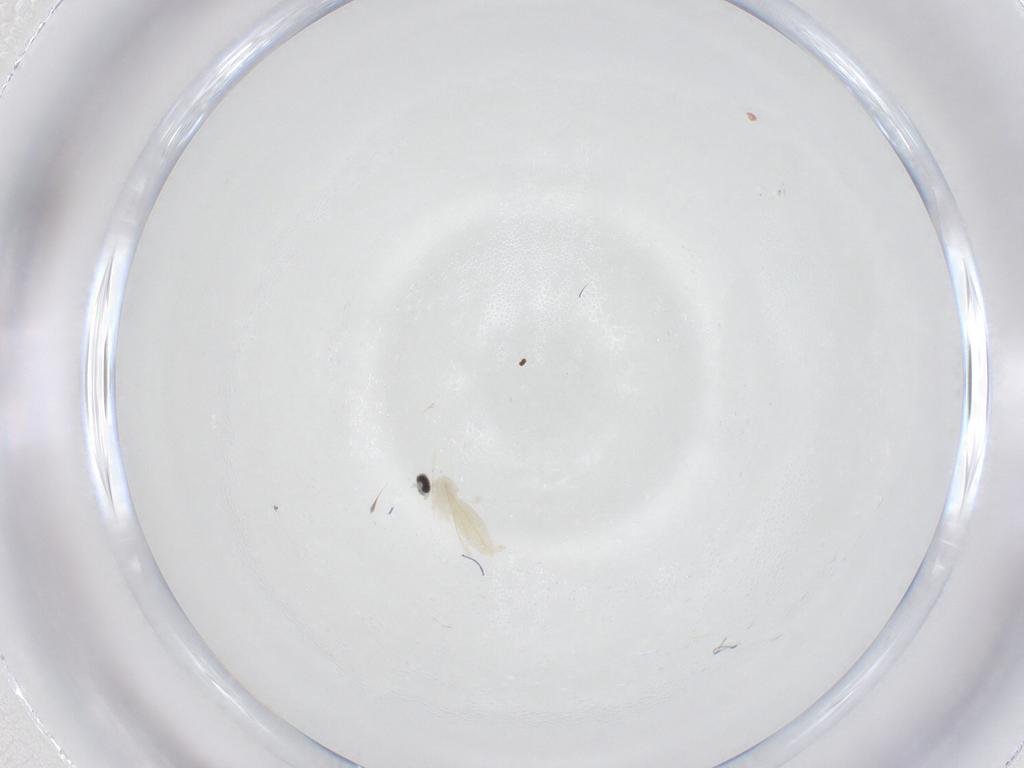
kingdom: Animalia
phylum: Arthropoda
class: Insecta
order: Diptera
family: Cecidomyiidae
